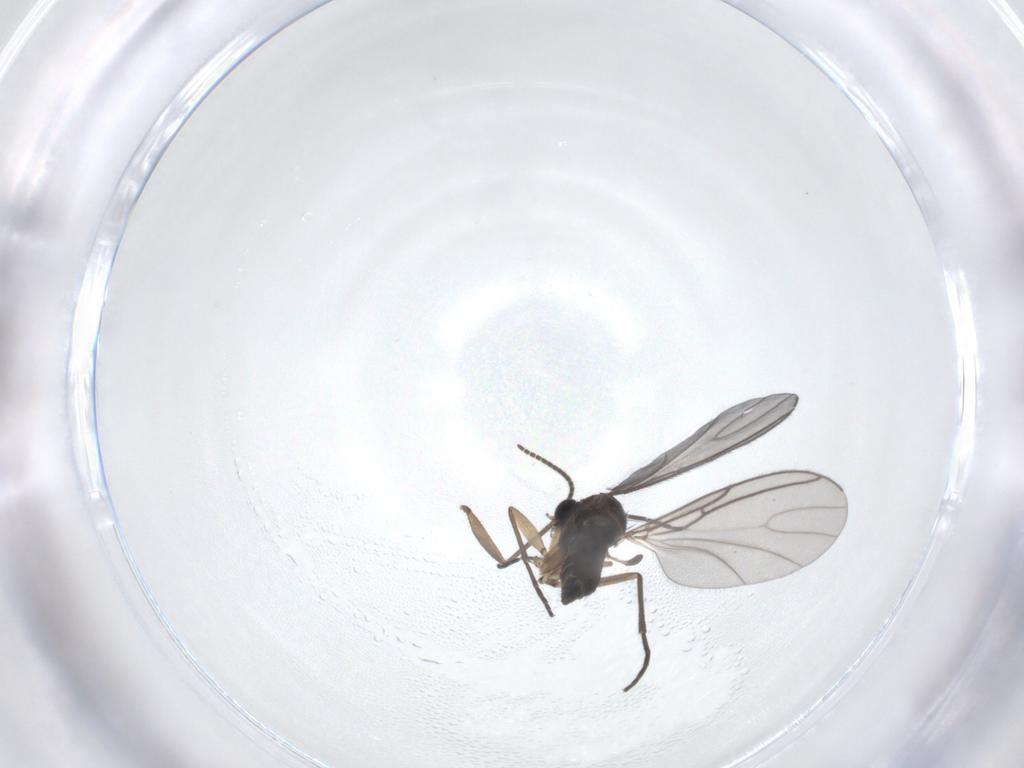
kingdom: Animalia
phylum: Arthropoda
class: Insecta
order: Diptera
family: Sciaridae
